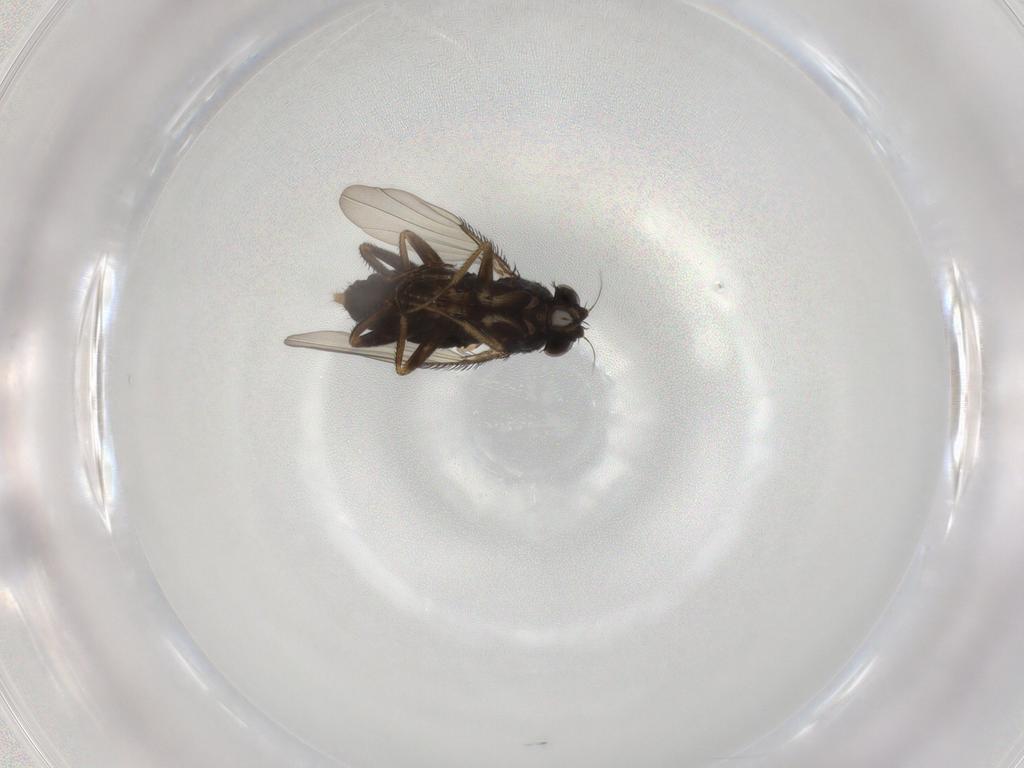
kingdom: Animalia
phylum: Arthropoda
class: Insecta
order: Diptera
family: Phoridae
